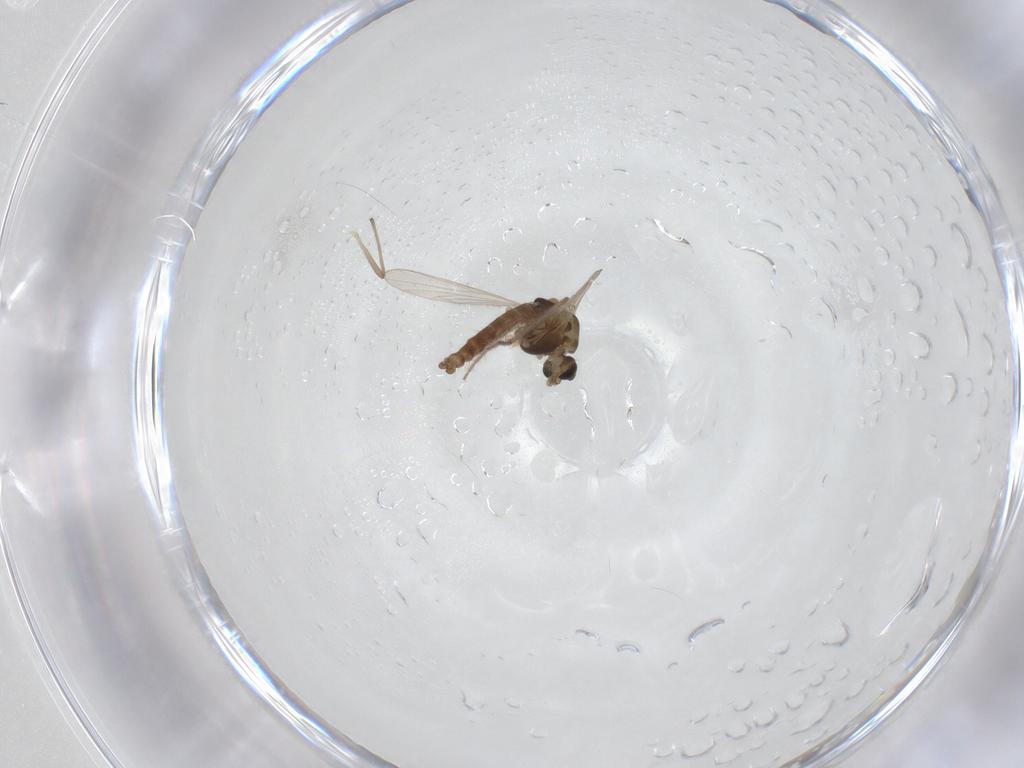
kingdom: Animalia
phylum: Arthropoda
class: Insecta
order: Diptera
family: Chironomidae
